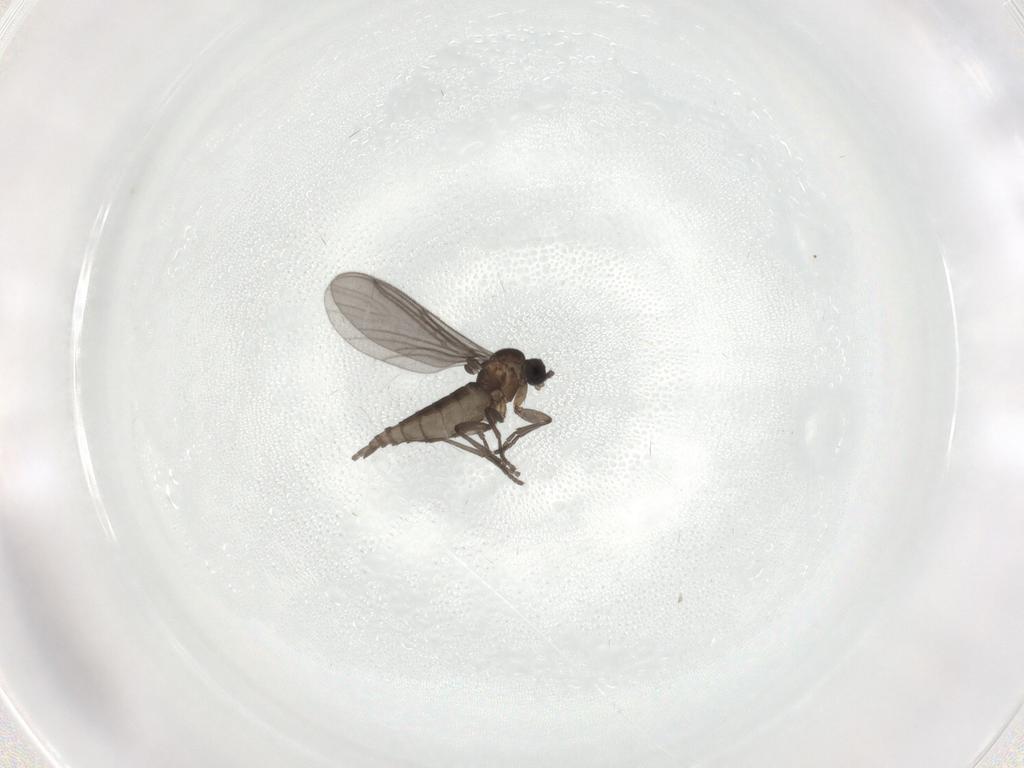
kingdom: Animalia
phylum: Arthropoda
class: Insecta
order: Diptera
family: Sciaridae
